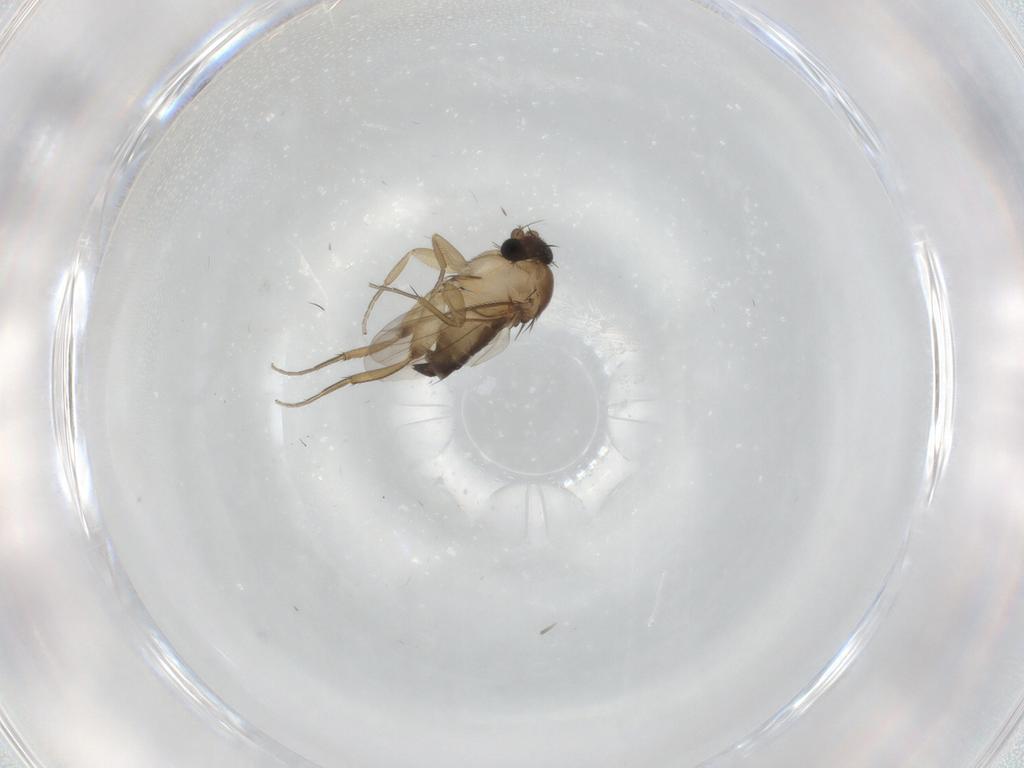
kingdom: Animalia
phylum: Arthropoda
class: Insecta
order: Diptera
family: Phoridae
